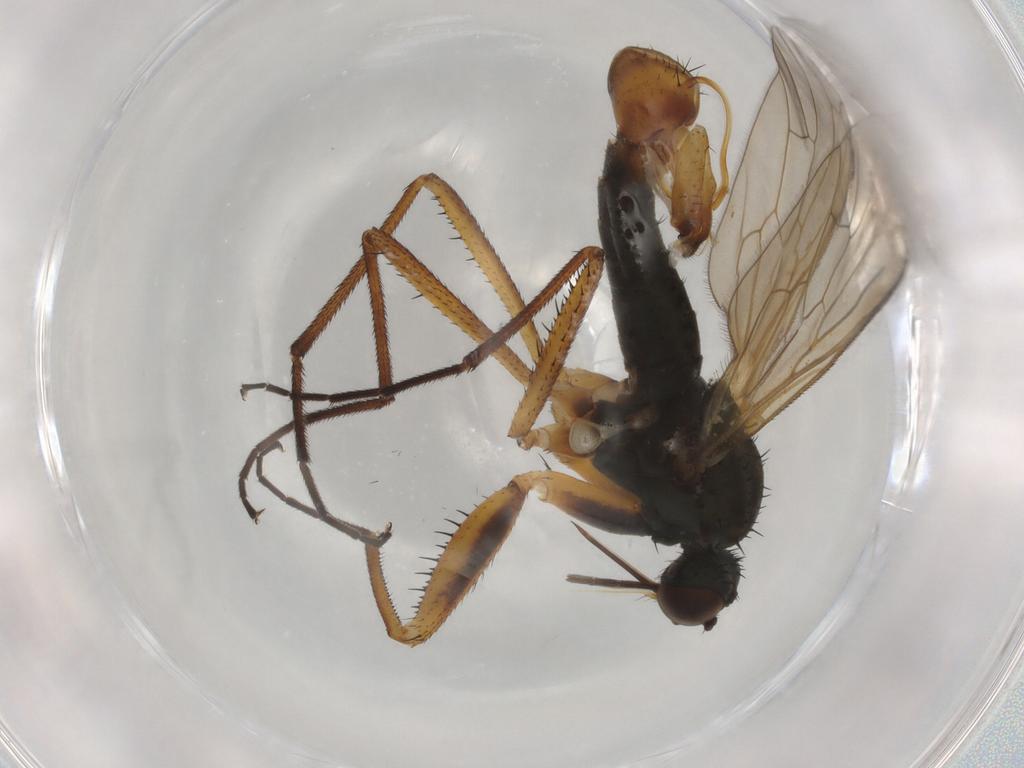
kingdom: Animalia
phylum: Arthropoda
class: Insecta
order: Diptera
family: Empididae
